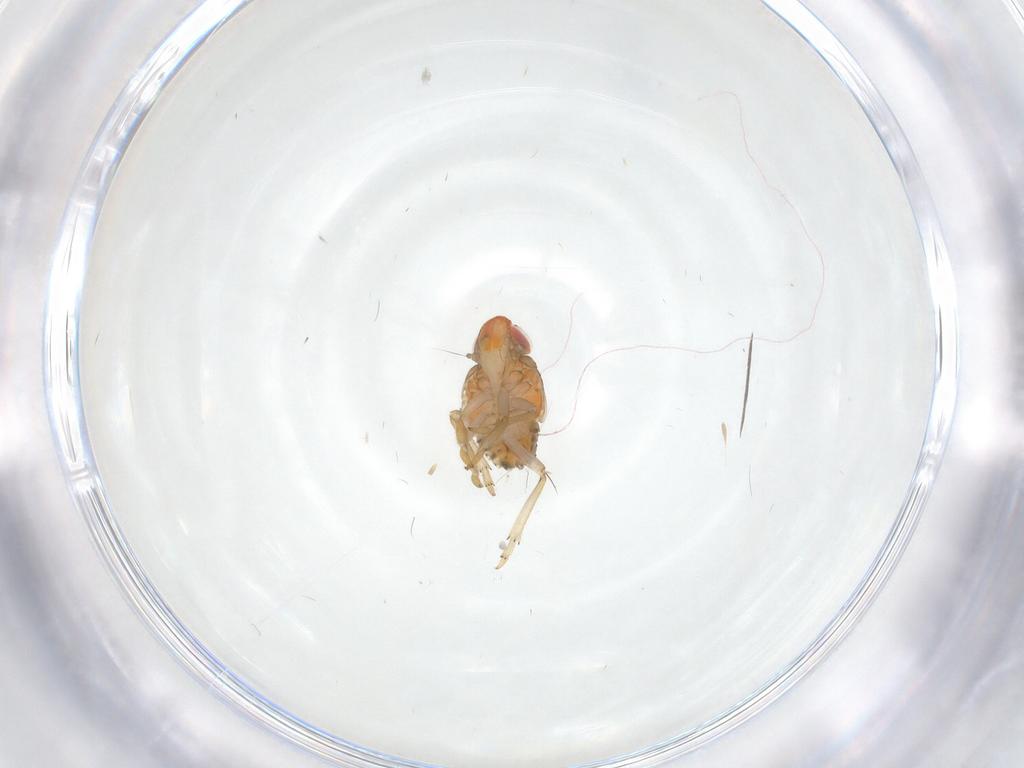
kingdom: Animalia
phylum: Arthropoda
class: Insecta
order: Hemiptera
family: Fulgoroidea_incertae_sedis
